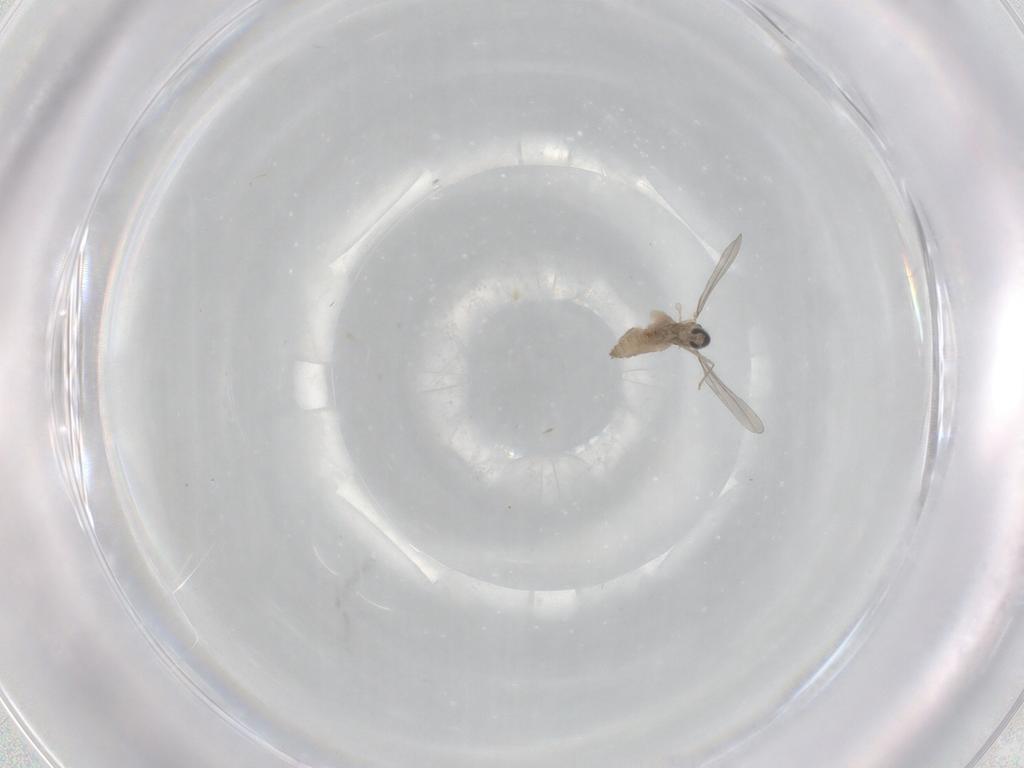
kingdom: Animalia
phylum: Arthropoda
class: Insecta
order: Diptera
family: Cecidomyiidae
